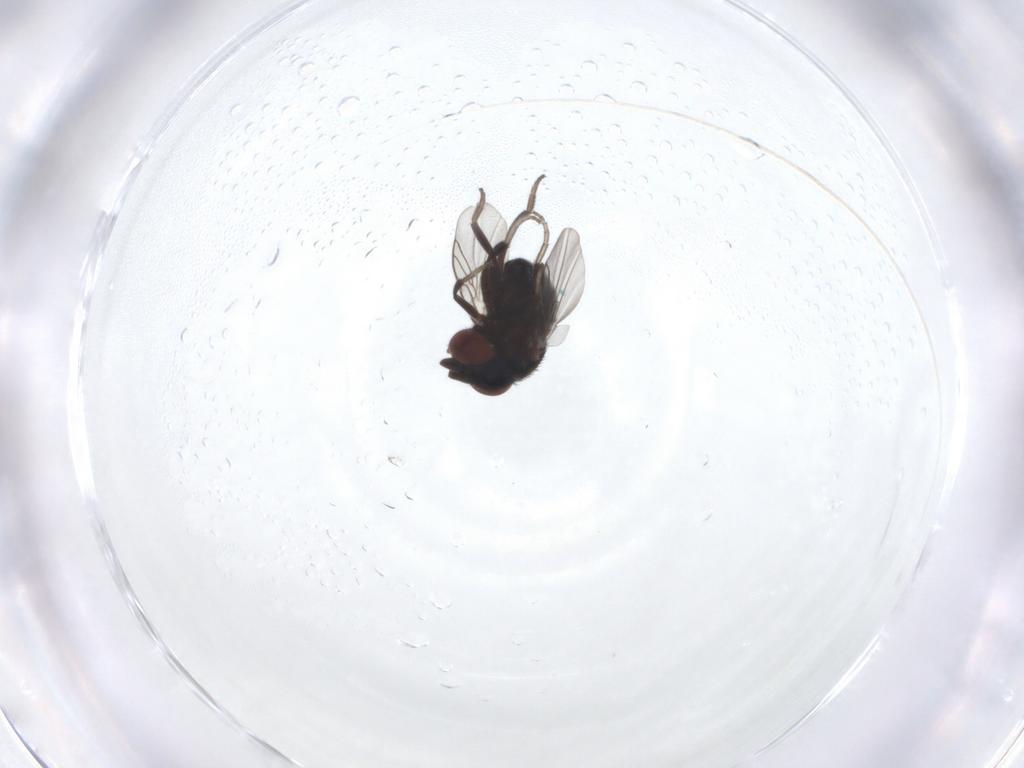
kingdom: Animalia
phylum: Arthropoda
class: Insecta
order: Diptera
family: Cryptochetidae
